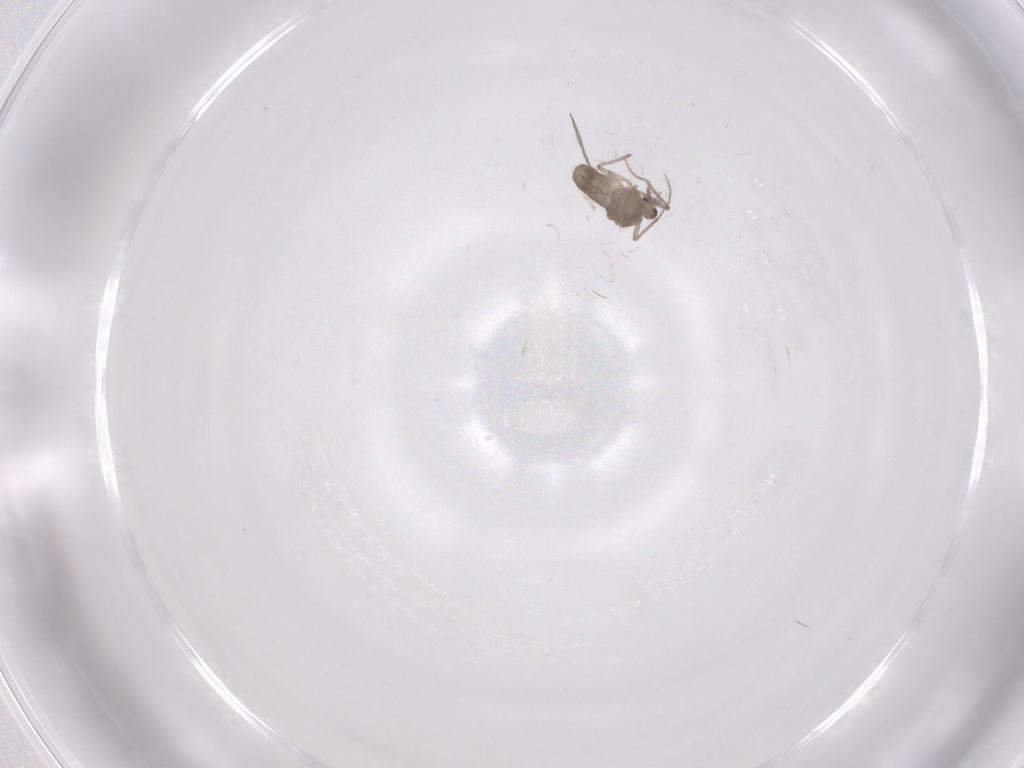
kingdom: Animalia
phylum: Arthropoda
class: Insecta
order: Diptera
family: Chironomidae
